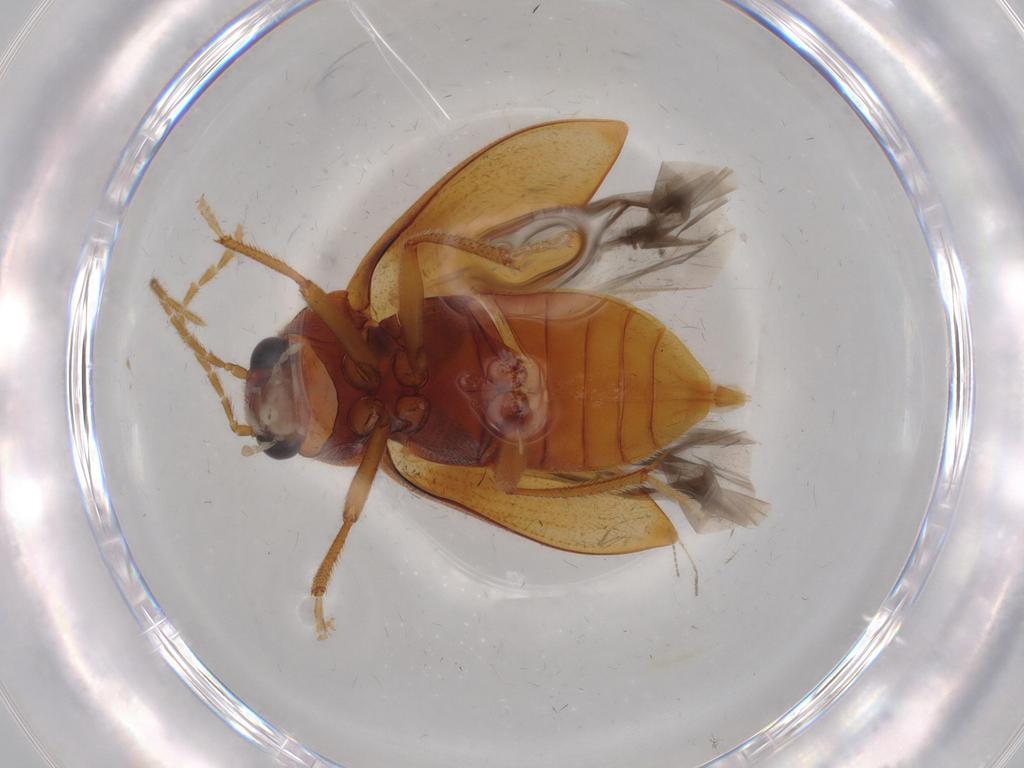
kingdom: Animalia
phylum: Arthropoda
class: Insecta
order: Coleoptera
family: Ptilodactylidae
